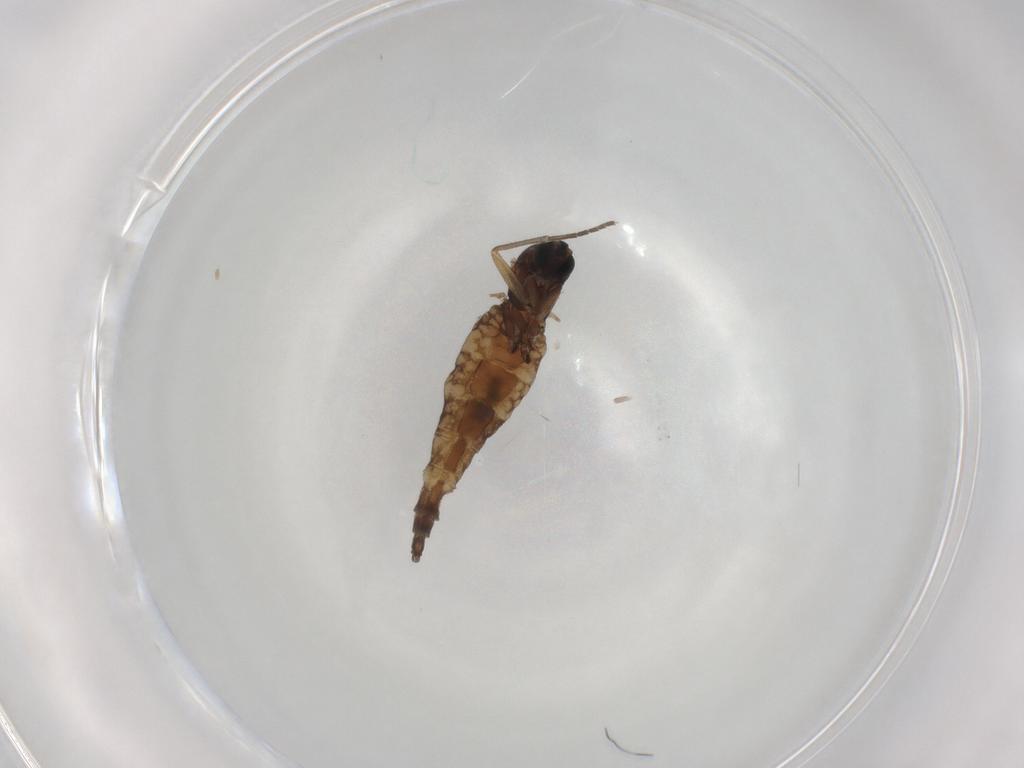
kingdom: Animalia
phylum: Arthropoda
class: Insecta
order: Diptera
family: Sciaridae
